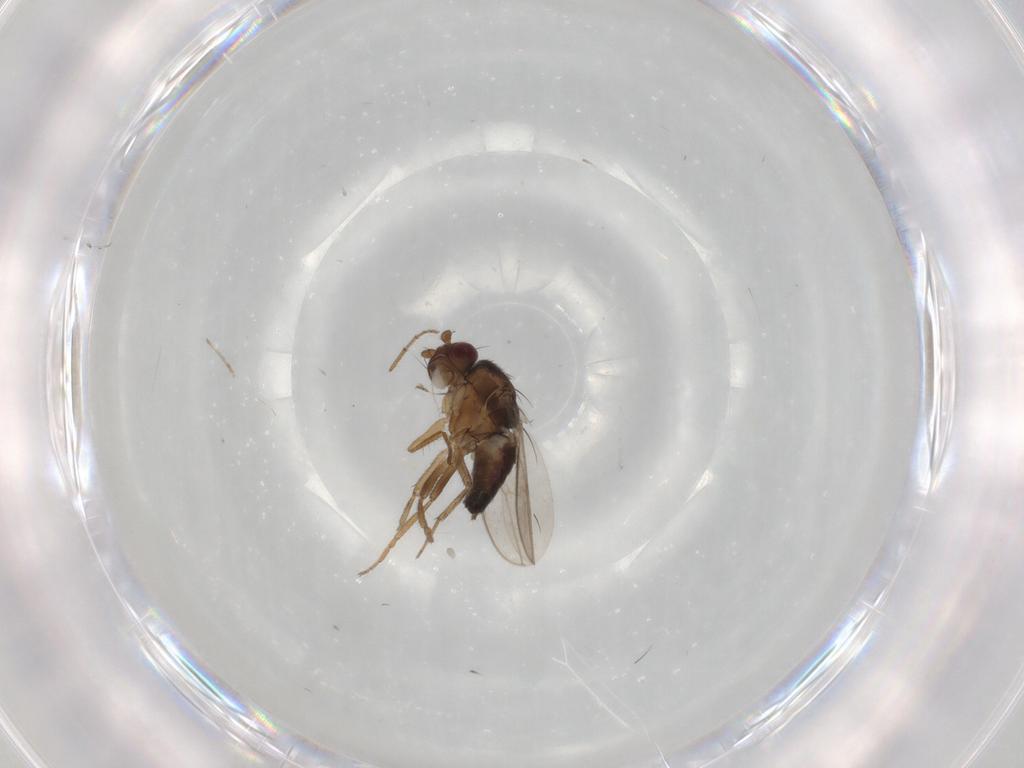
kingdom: Animalia
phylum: Arthropoda
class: Insecta
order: Diptera
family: Sphaeroceridae
